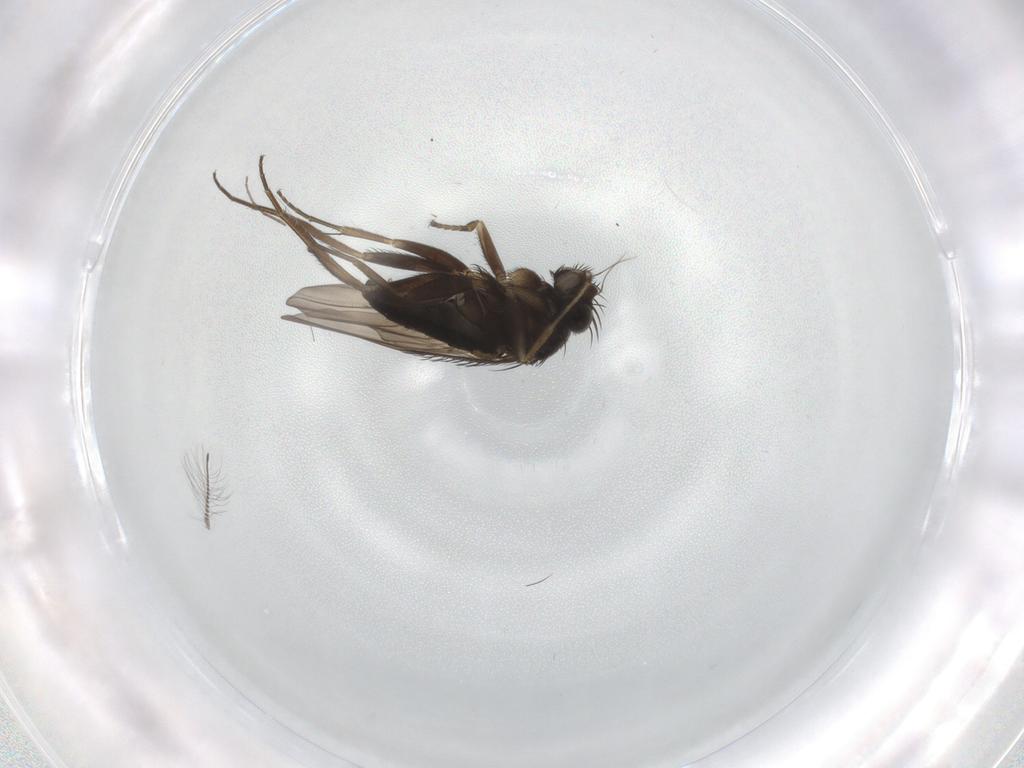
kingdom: Animalia
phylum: Arthropoda
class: Insecta
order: Diptera
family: Phoridae
